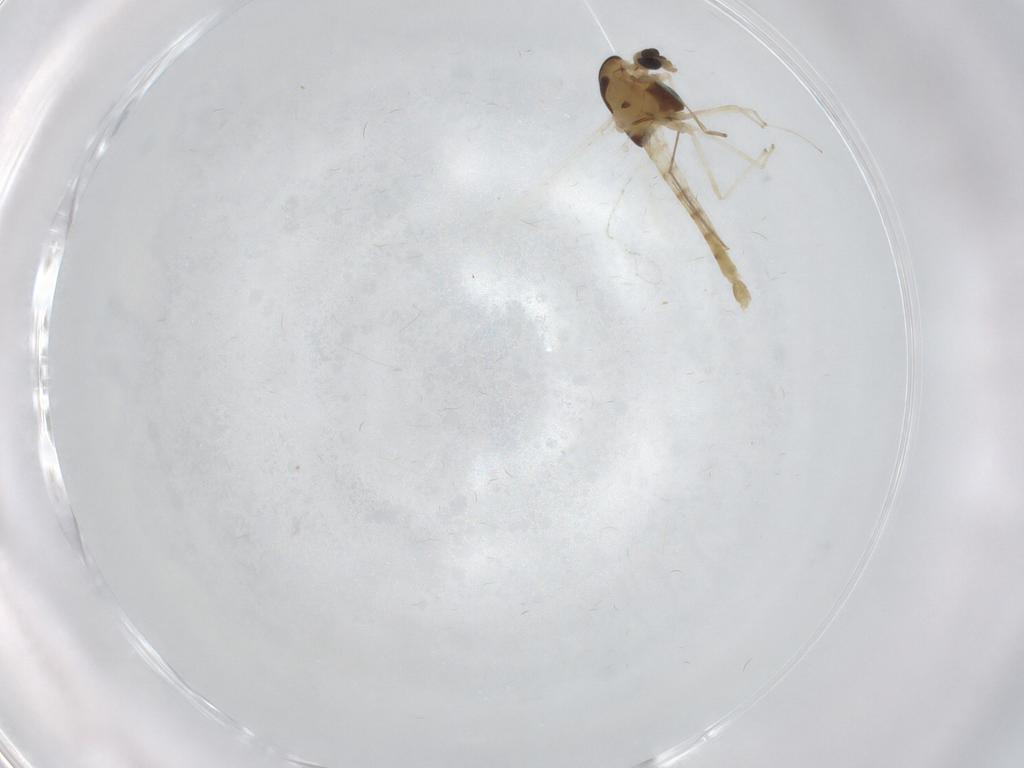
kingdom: Animalia
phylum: Arthropoda
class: Insecta
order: Diptera
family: Chironomidae
